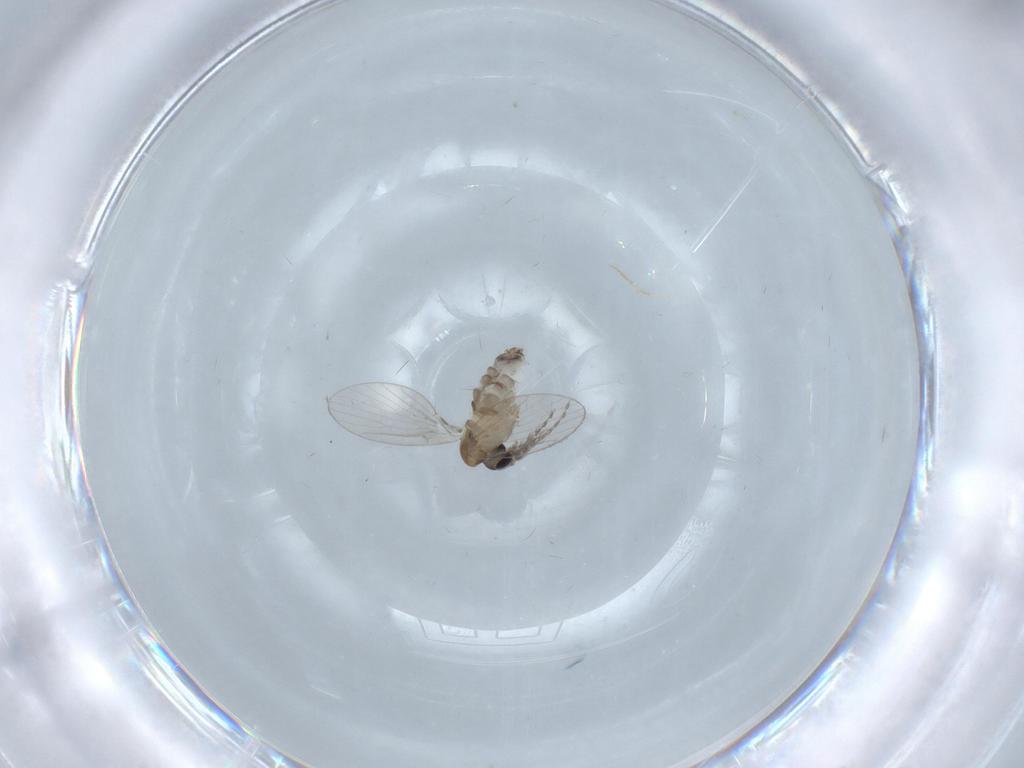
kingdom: Animalia
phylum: Arthropoda
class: Insecta
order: Diptera
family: Psychodidae
